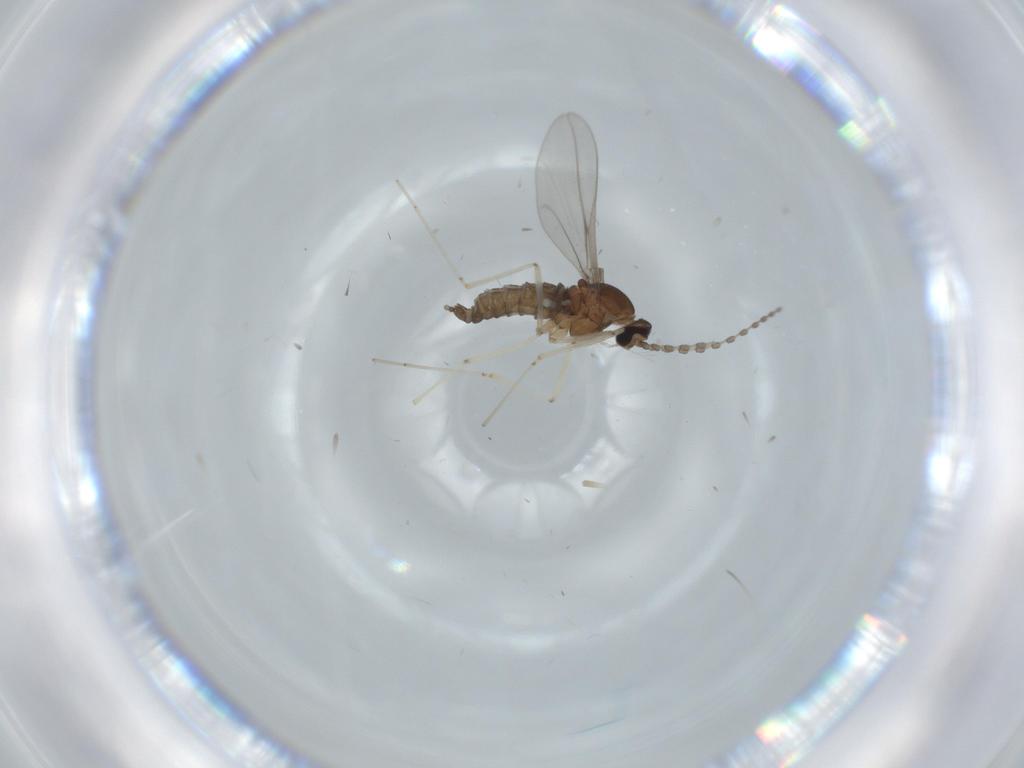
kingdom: Animalia
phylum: Arthropoda
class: Insecta
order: Diptera
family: Cecidomyiidae
